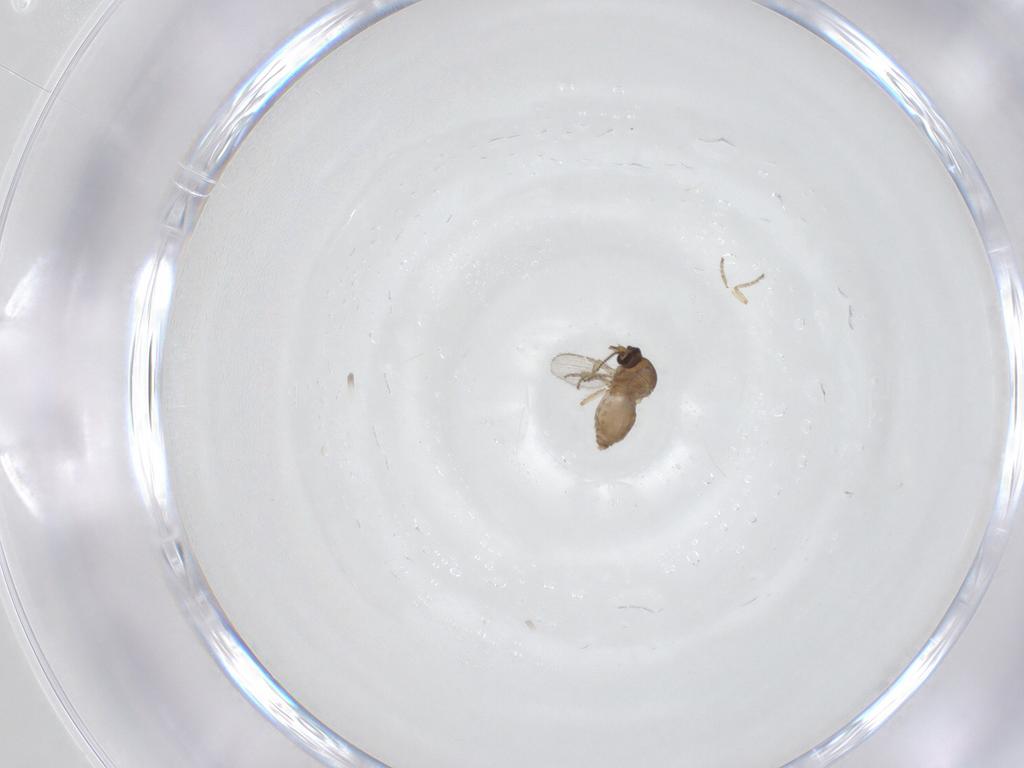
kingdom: Animalia
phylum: Arthropoda
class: Insecta
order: Diptera
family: Ceratopogonidae
